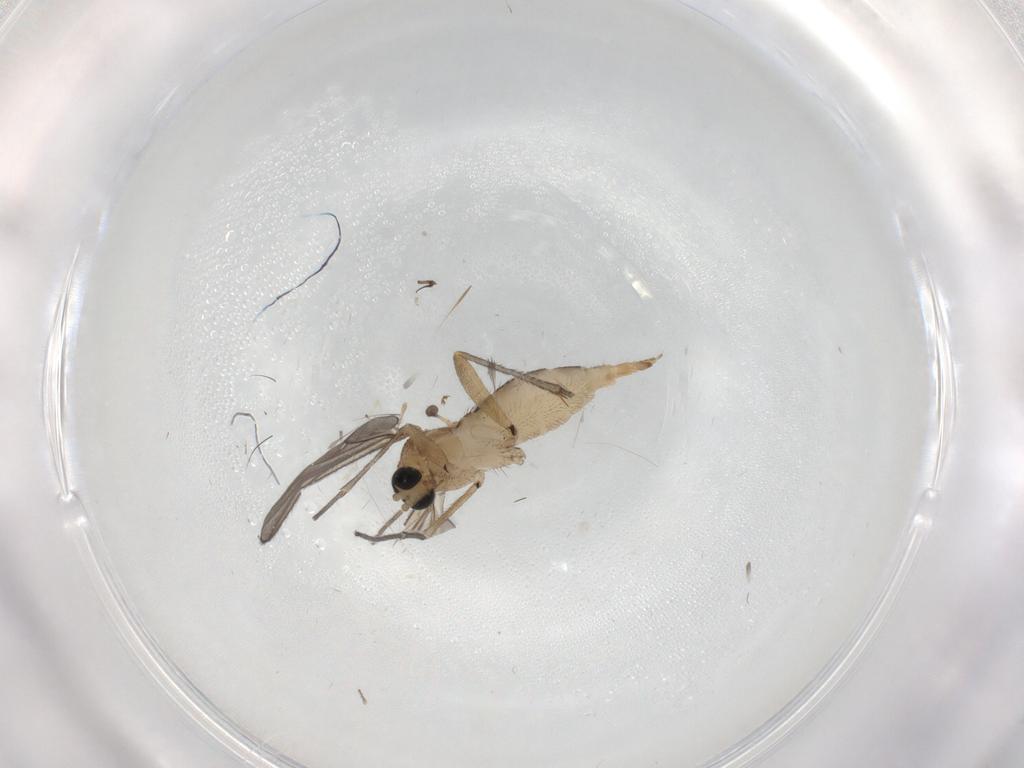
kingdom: Animalia
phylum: Arthropoda
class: Insecta
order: Diptera
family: Sciaridae
